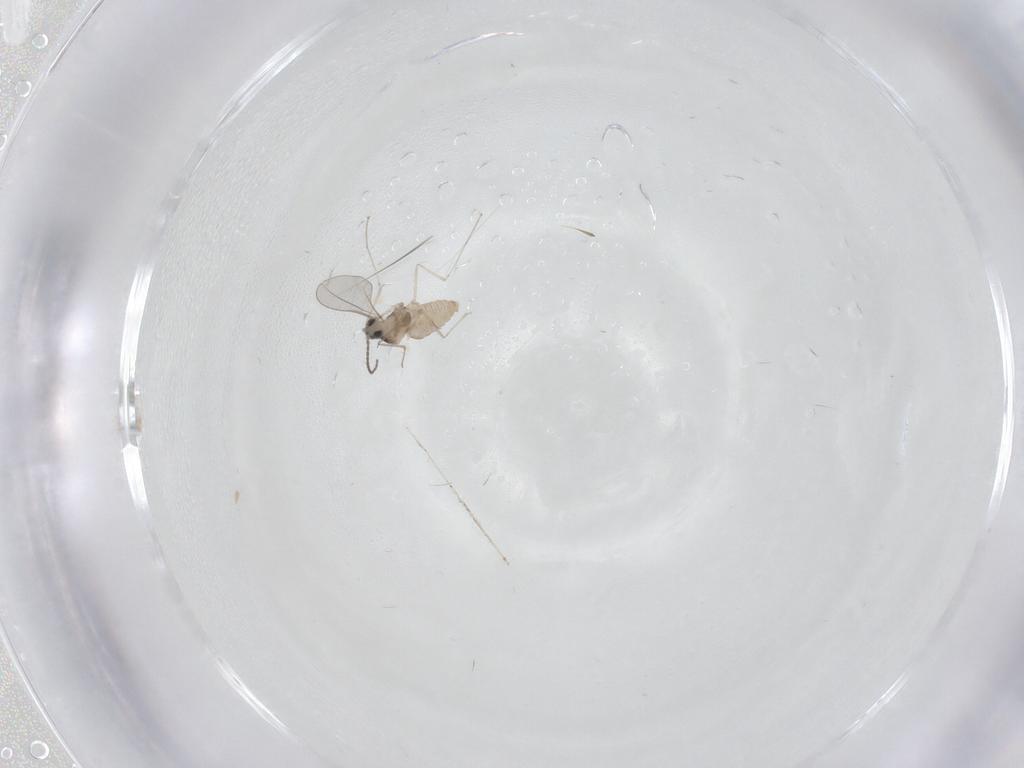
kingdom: Animalia
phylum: Arthropoda
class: Insecta
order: Diptera
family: Cecidomyiidae
